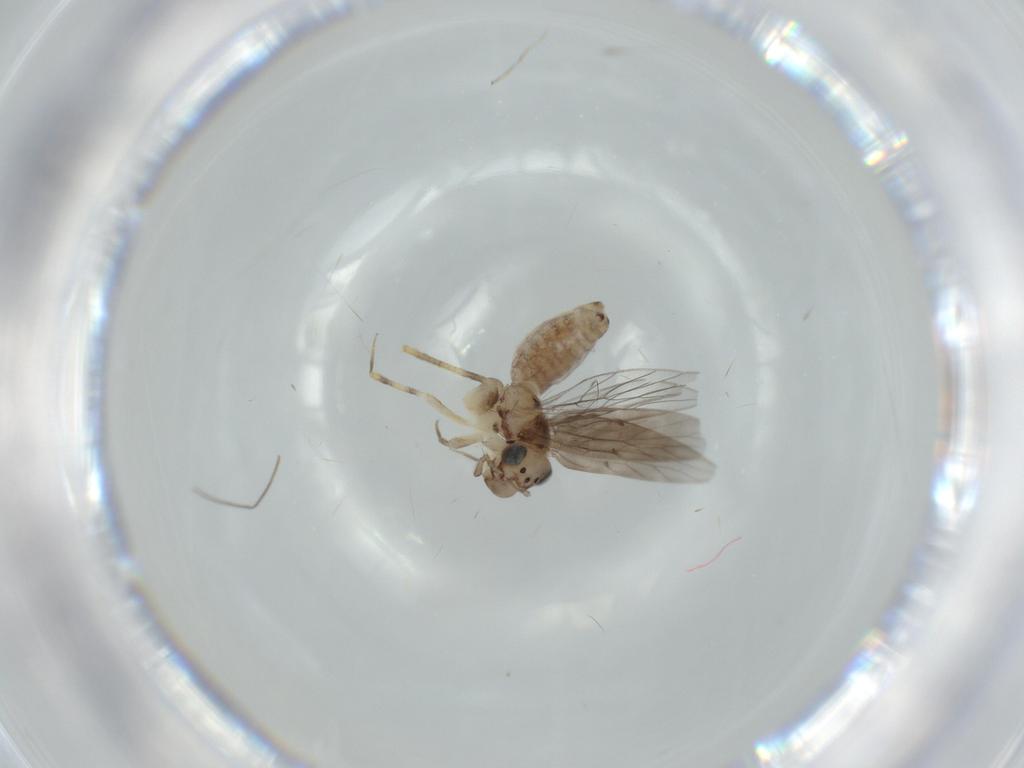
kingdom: Animalia
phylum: Arthropoda
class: Insecta
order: Psocodea
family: Lepidopsocidae
